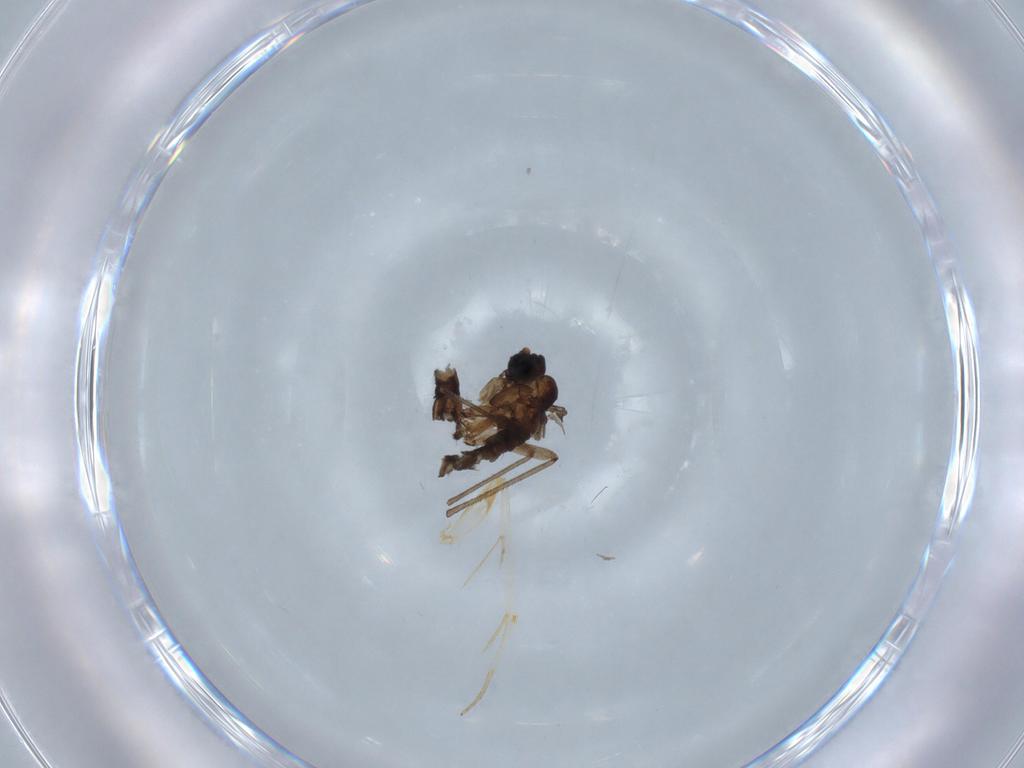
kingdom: Animalia
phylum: Arthropoda
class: Insecta
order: Diptera
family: Sciaridae
